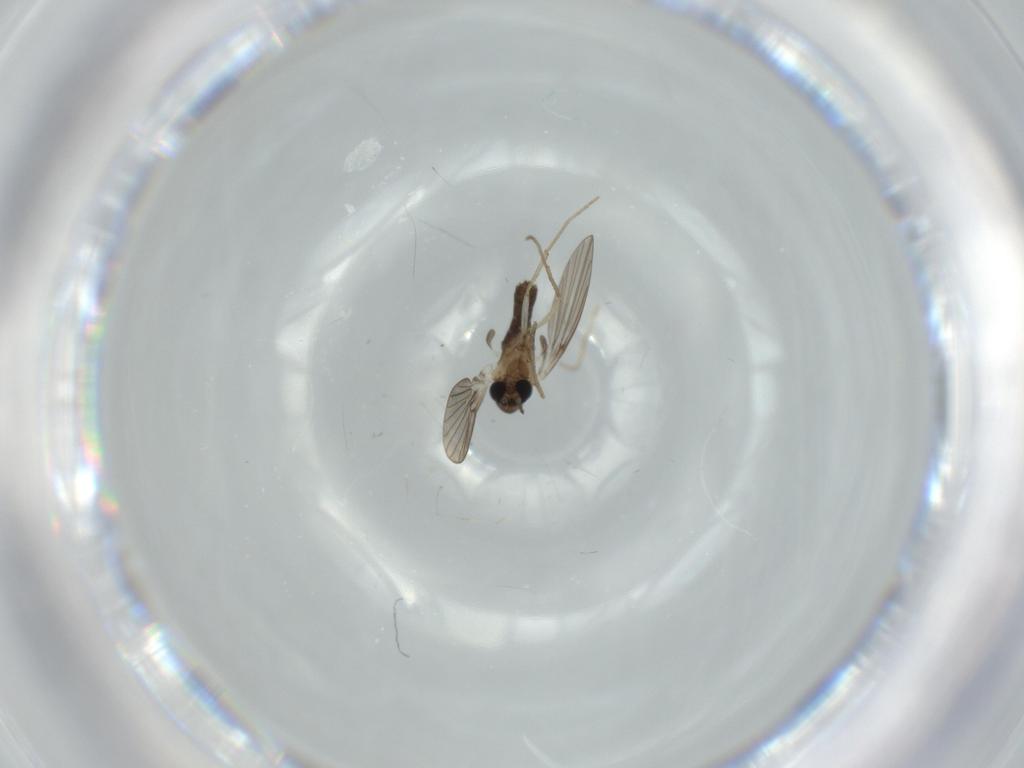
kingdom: Animalia
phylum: Arthropoda
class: Insecta
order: Diptera
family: Psychodidae
